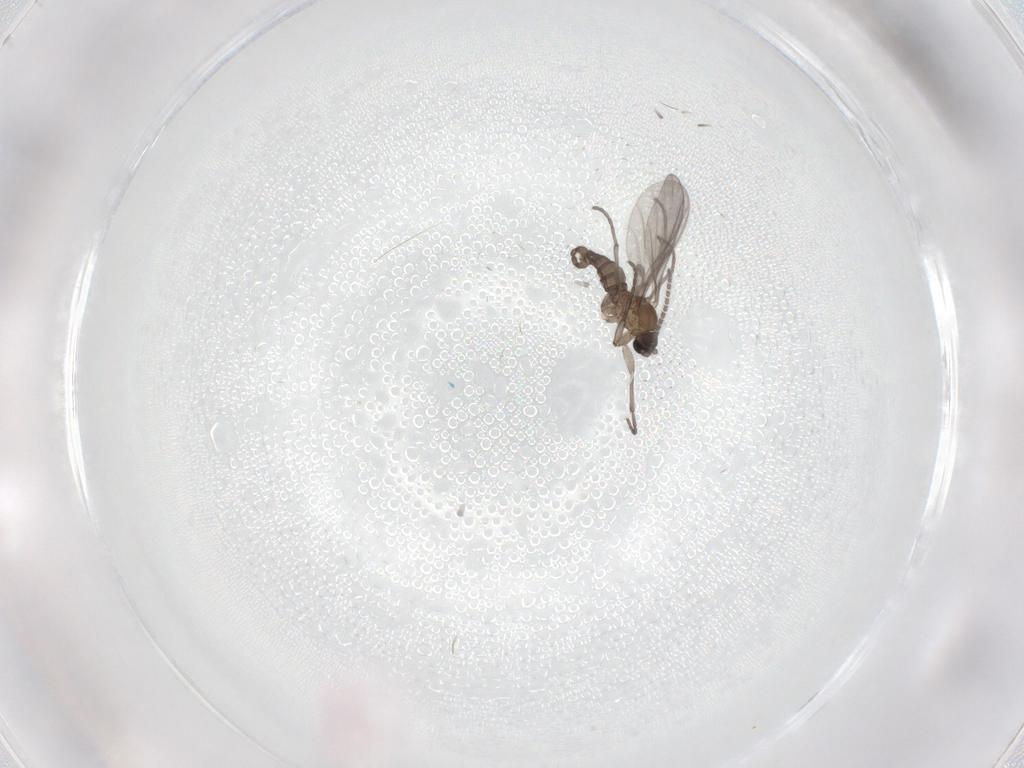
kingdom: Animalia
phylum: Arthropoda
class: Insecta
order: Diptera
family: Sciaridae
